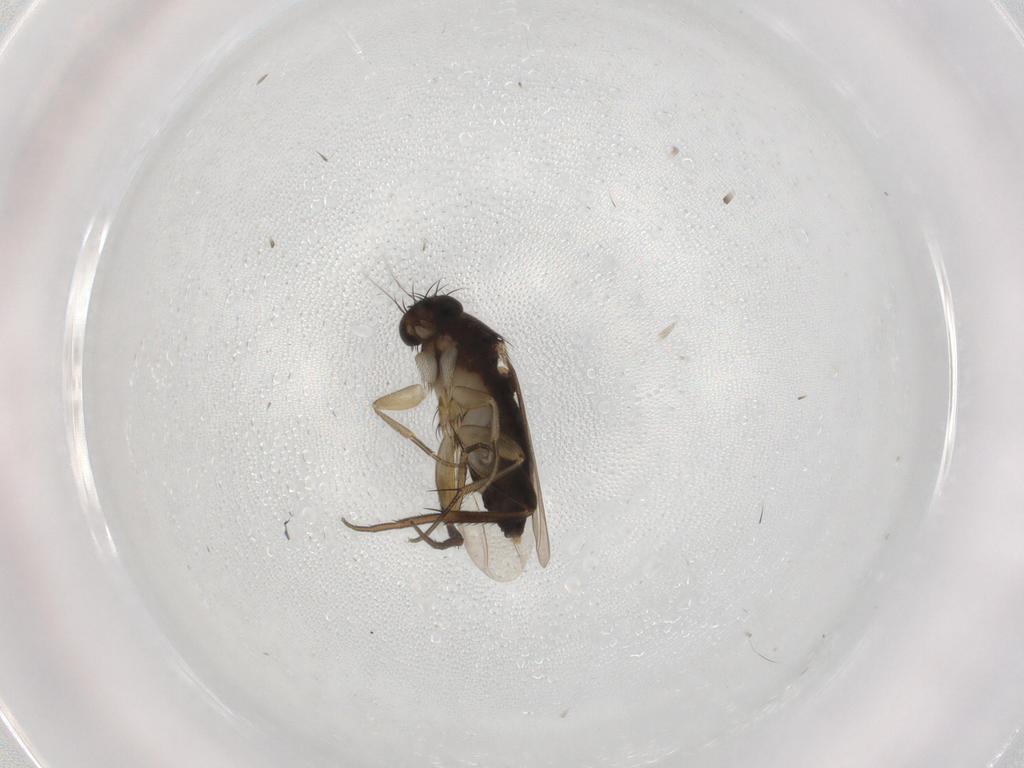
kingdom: Animalia
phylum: Arthropoda
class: Insecta
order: Diptera
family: Phoridae
